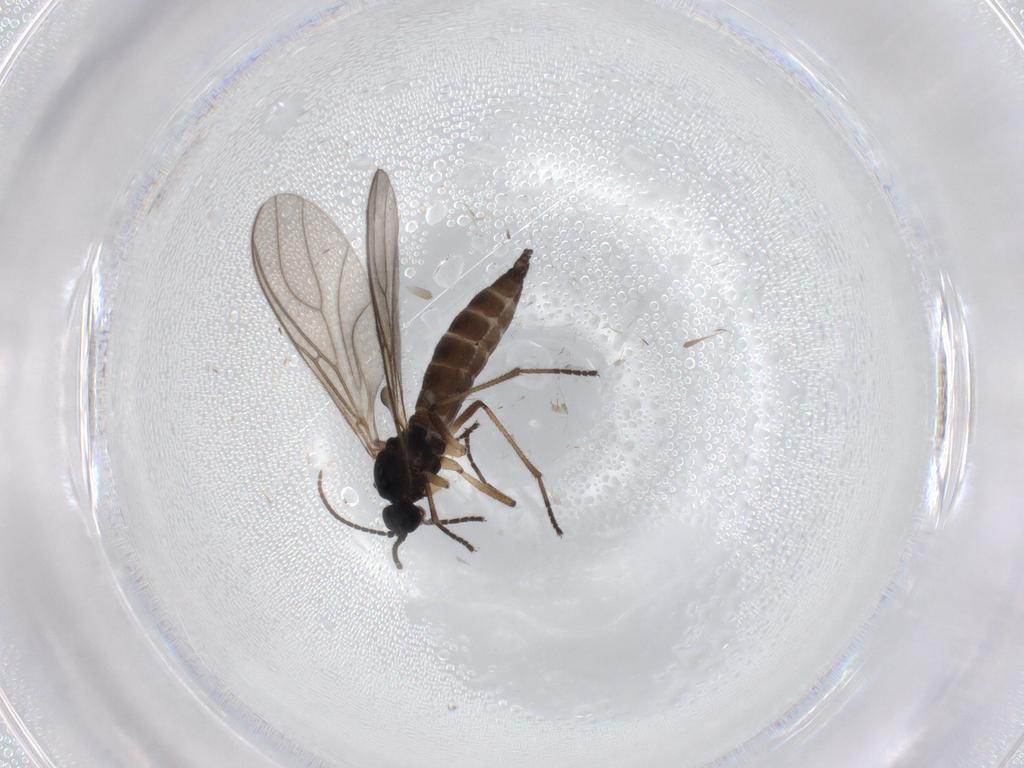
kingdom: Animalia
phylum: Arthropoda
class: Insecta
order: Diptera
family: Sciaridae
